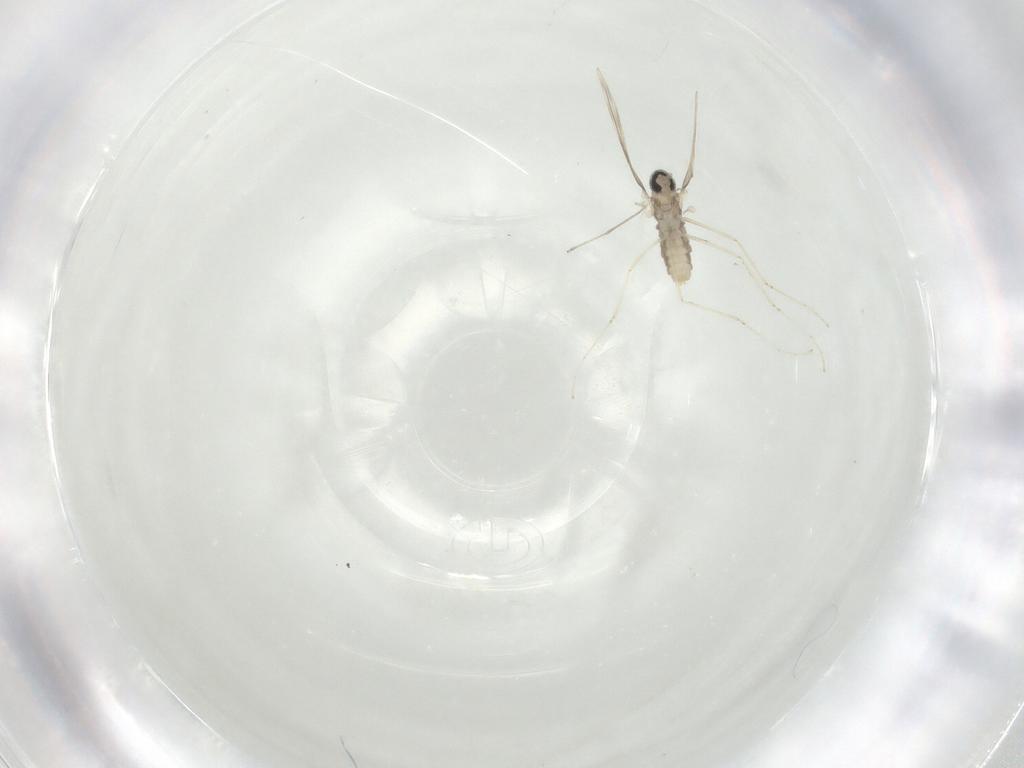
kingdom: Animalia
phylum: Arthropoda
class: Insecta
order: Diptera
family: Cecidomyiidae
